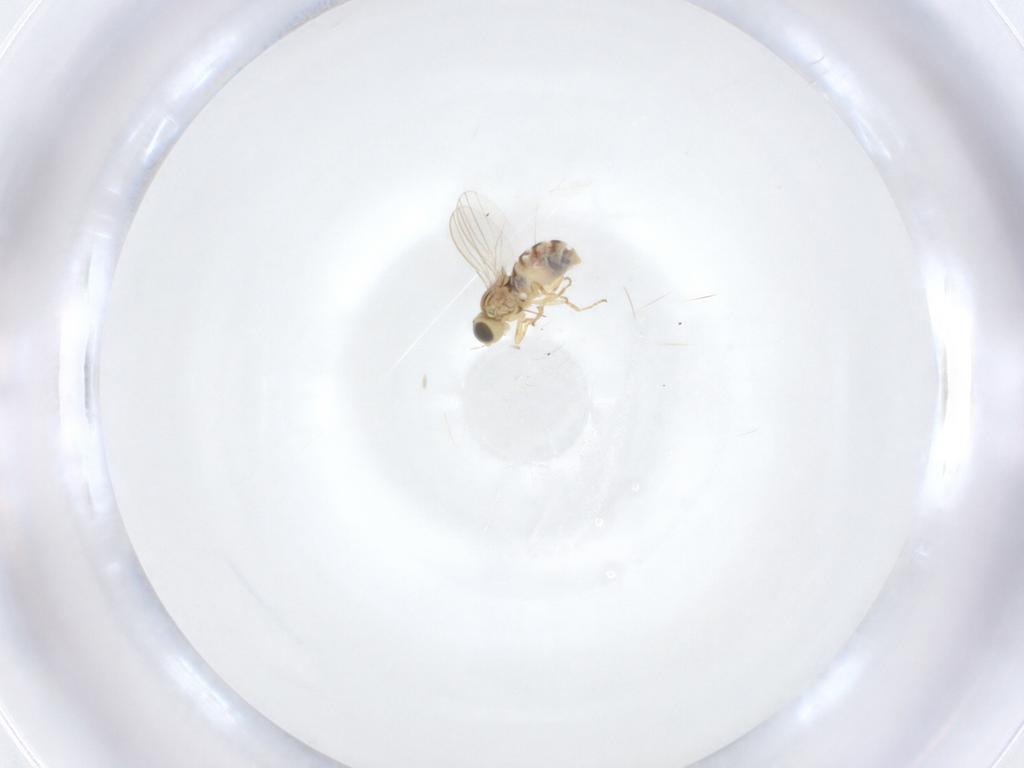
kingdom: Animalia
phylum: Arthropoda
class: Insecta
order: Diptera
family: Chyromyidae
